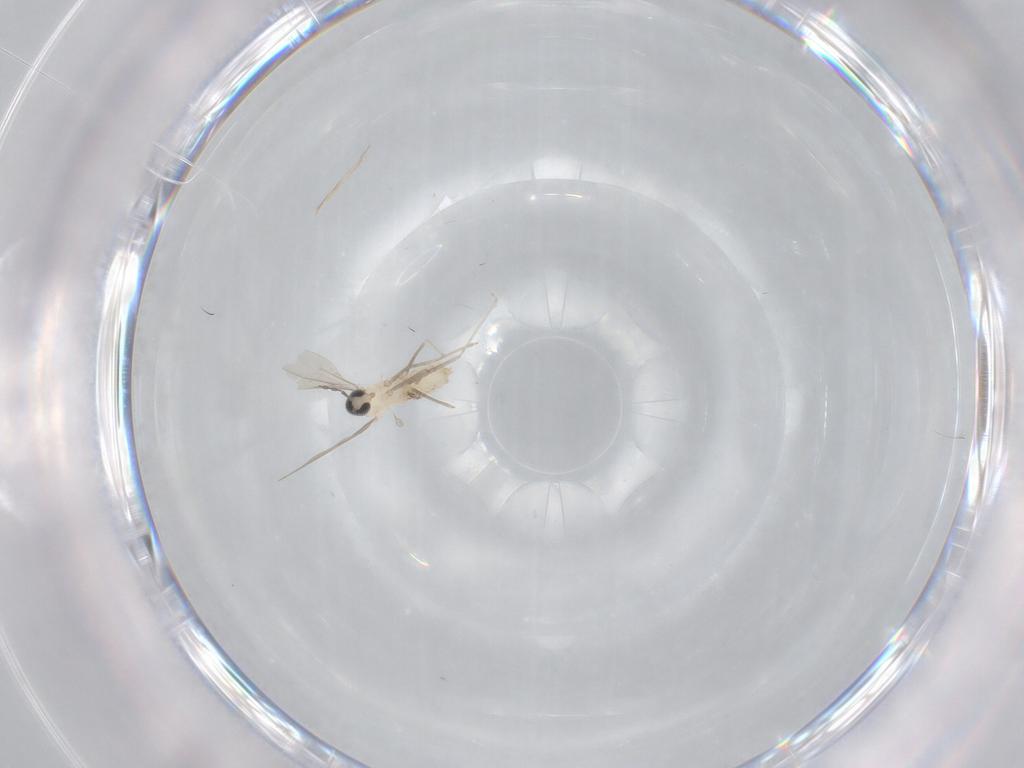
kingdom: Animalia
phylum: Arthropoda
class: Insecta
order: Diptera
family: Cecidomyiidae
